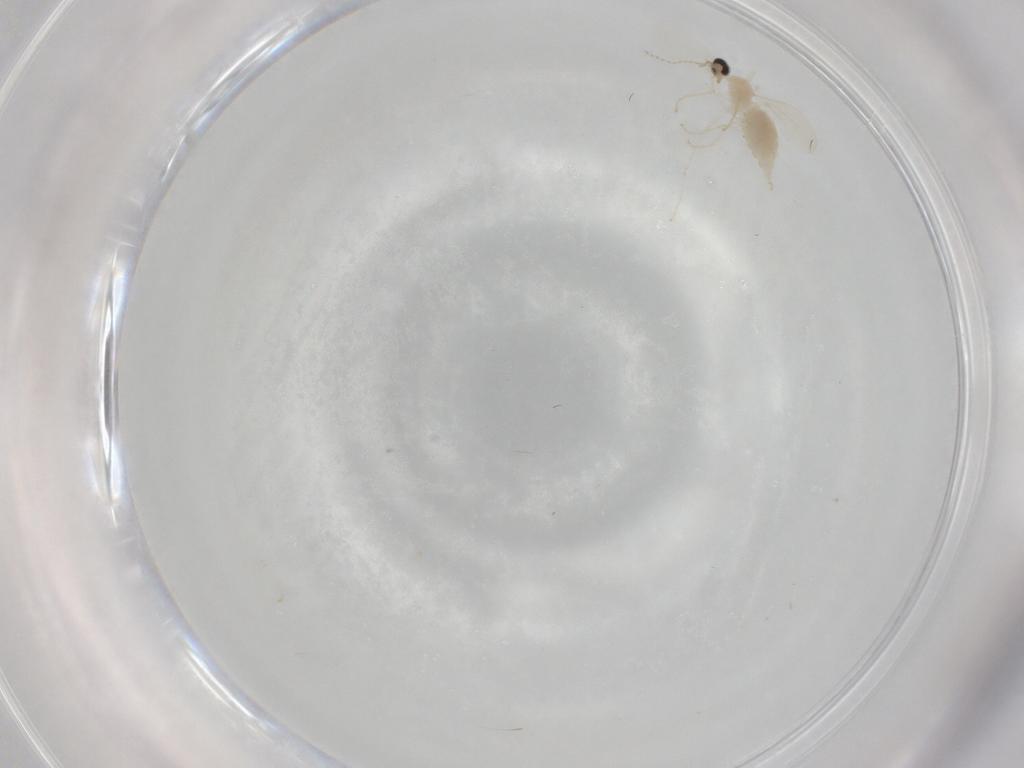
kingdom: Animalia
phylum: Arthropoda
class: Insecta
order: Diptera
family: Cecidomyiidae
